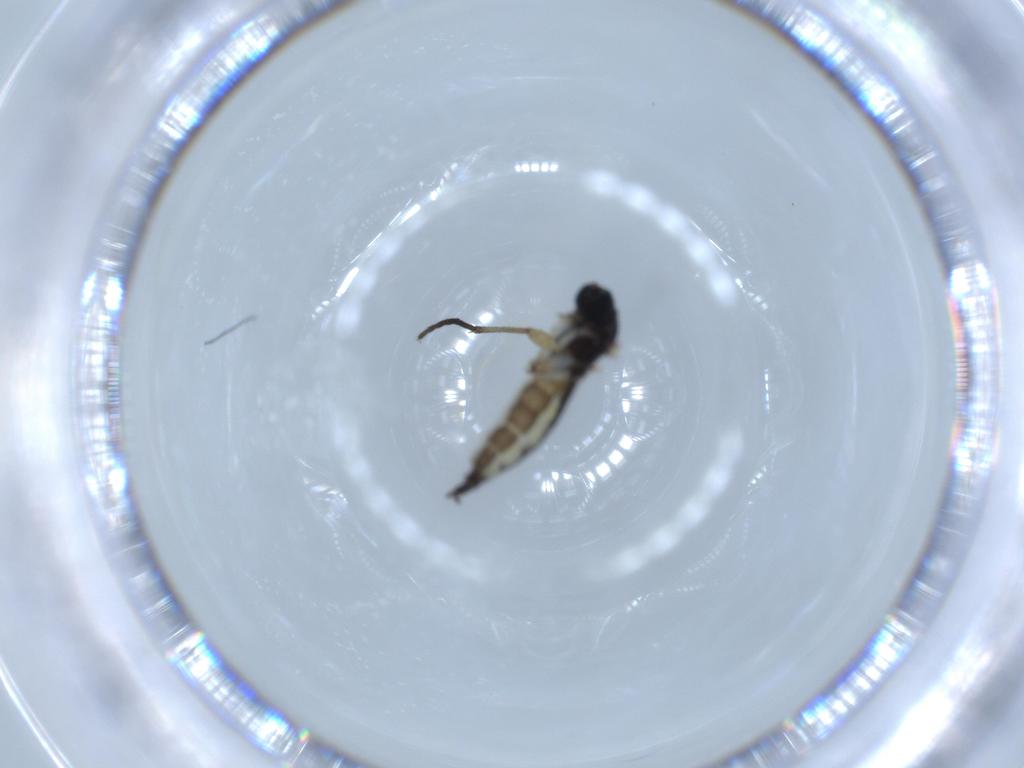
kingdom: Animalia
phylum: Arthropoda
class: Insecta
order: Diptera
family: Sciaridae
